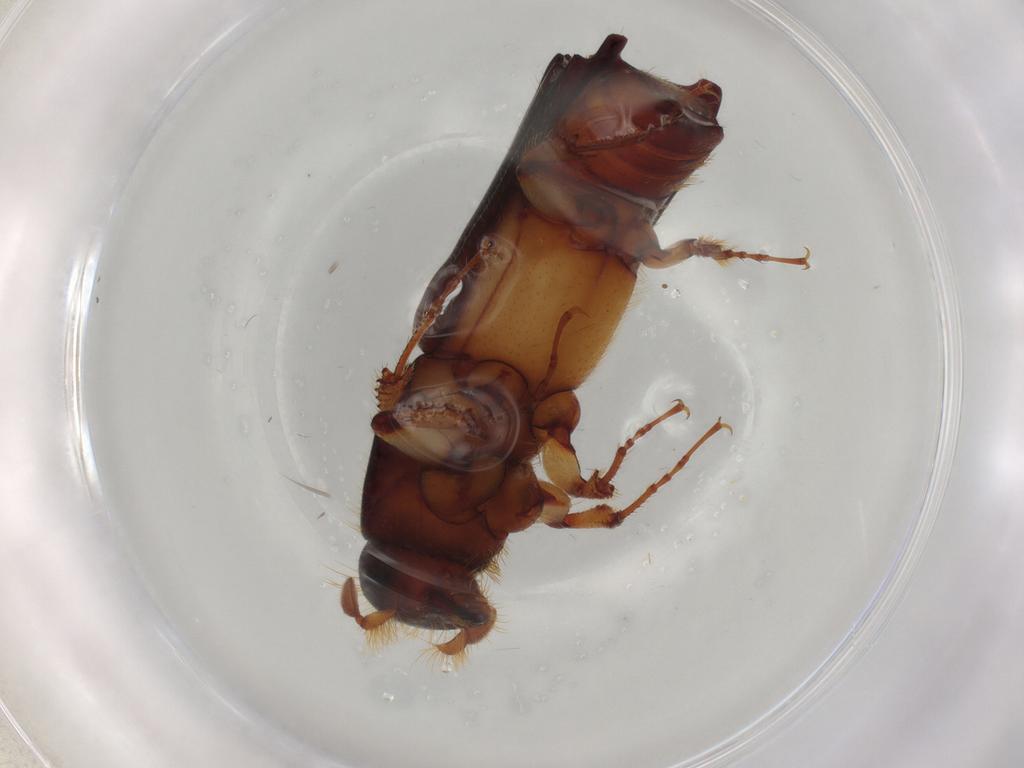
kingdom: Animalia
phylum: Arthropoda
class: Insecta
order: Coleoptera
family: Curculionidae
